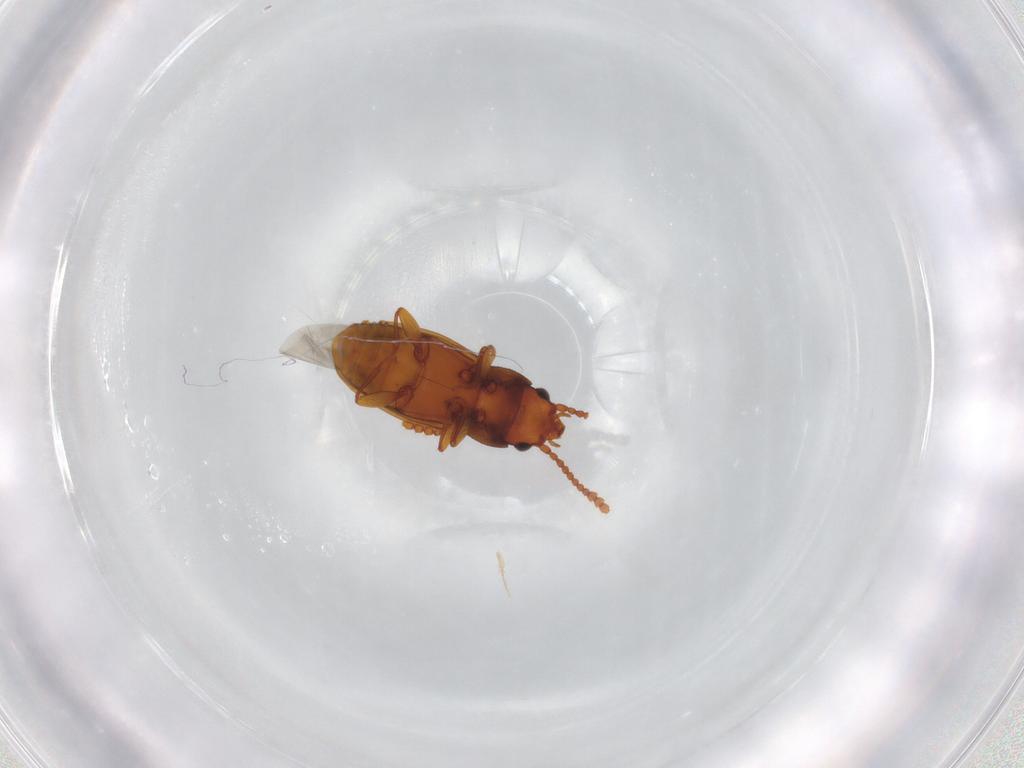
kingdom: Animalia
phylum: Arthropoda
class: Insecta
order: Coleoptera
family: Laemophloeidae
